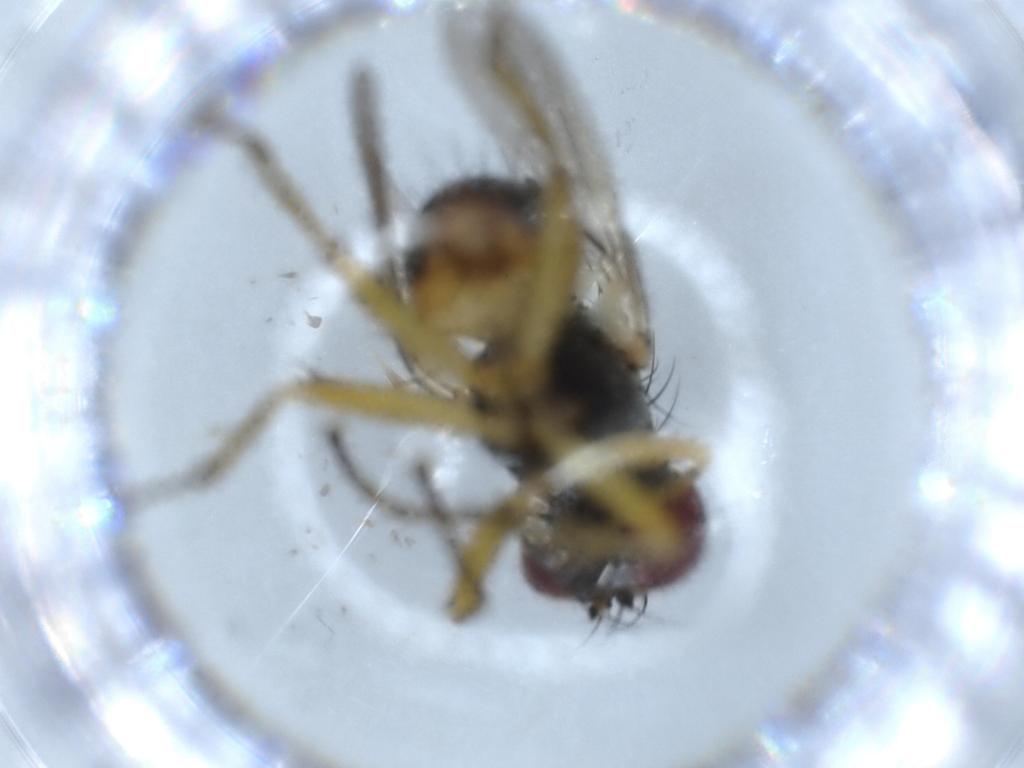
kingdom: Animalia
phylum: Arthropoda
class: Insecta
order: Diptera
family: Muscidae
